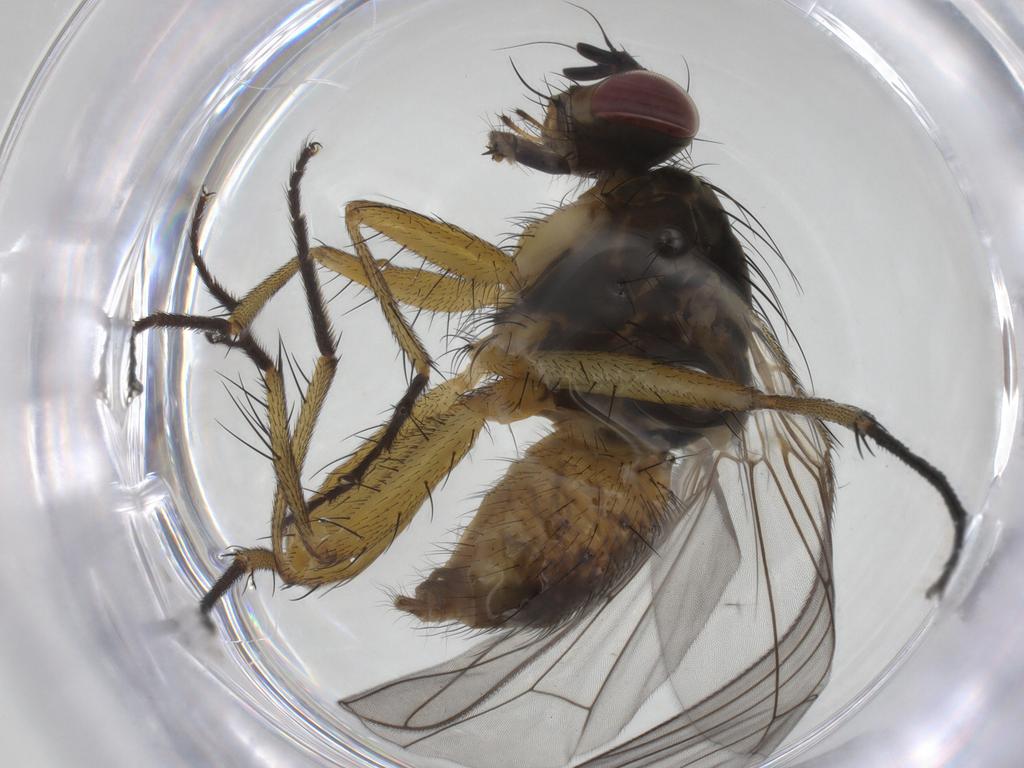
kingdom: Animalia
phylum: Arthropoda
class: Insecta
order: Diptera
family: Muscidae
